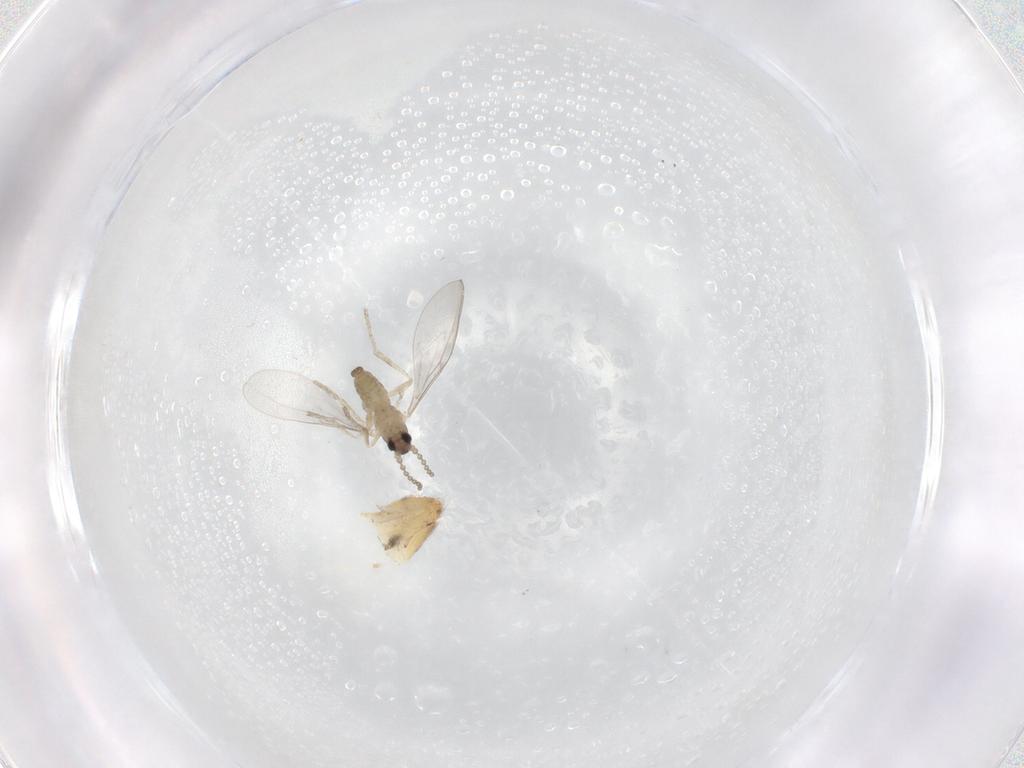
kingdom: Animalia
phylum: Arthropoda
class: Insecta
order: Diptera
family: Cecidomyiidae
